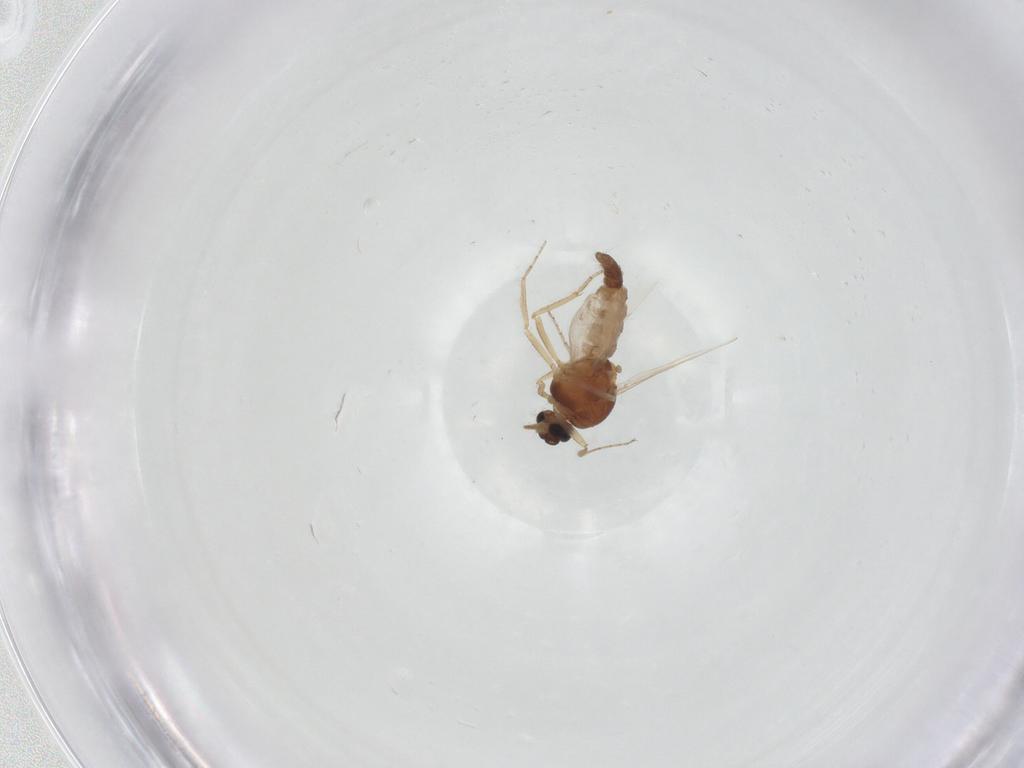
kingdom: Animalia
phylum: Arthropoda
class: Insecta
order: Diptera
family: Ceratopogonidae
